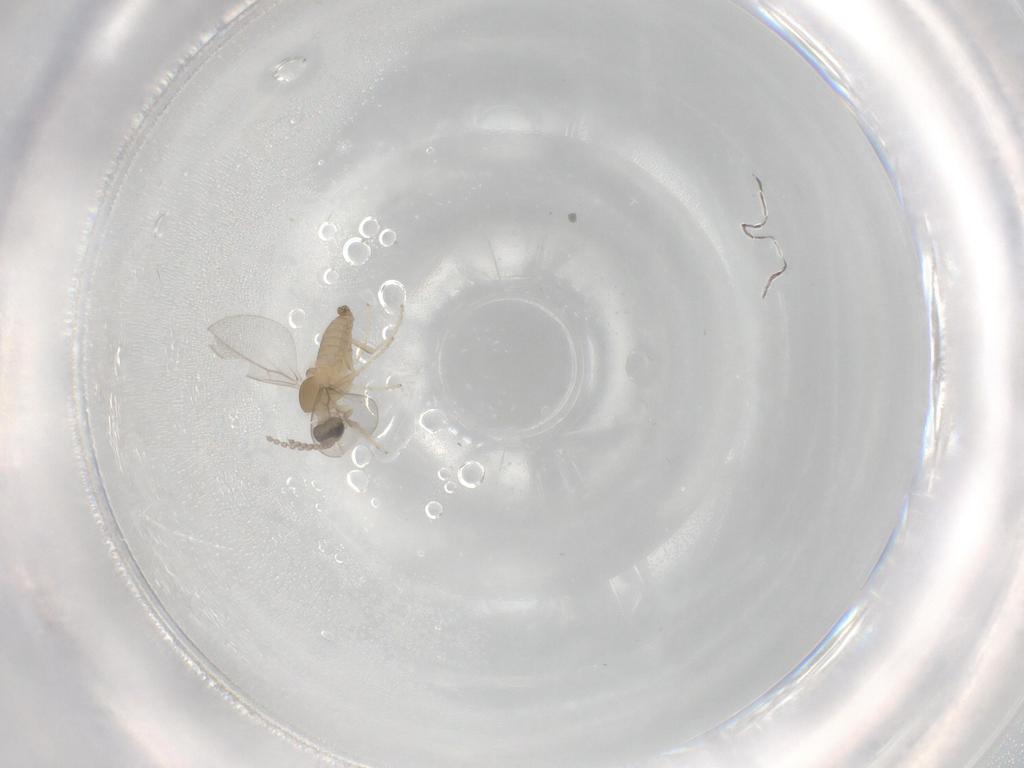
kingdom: Animalia
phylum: Arthropoda
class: Insecta
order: Diptera
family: Cecidomyiidae
